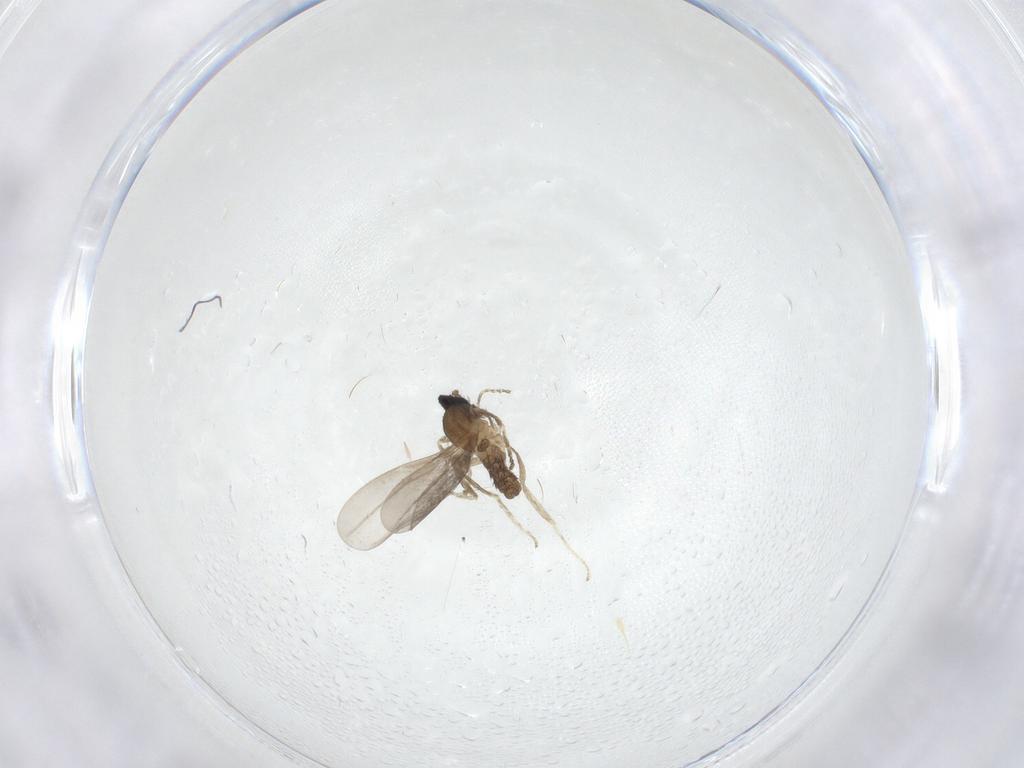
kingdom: Animalia
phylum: Arthropoda
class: Insecta
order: Diptera
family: Cecidomyiidae
